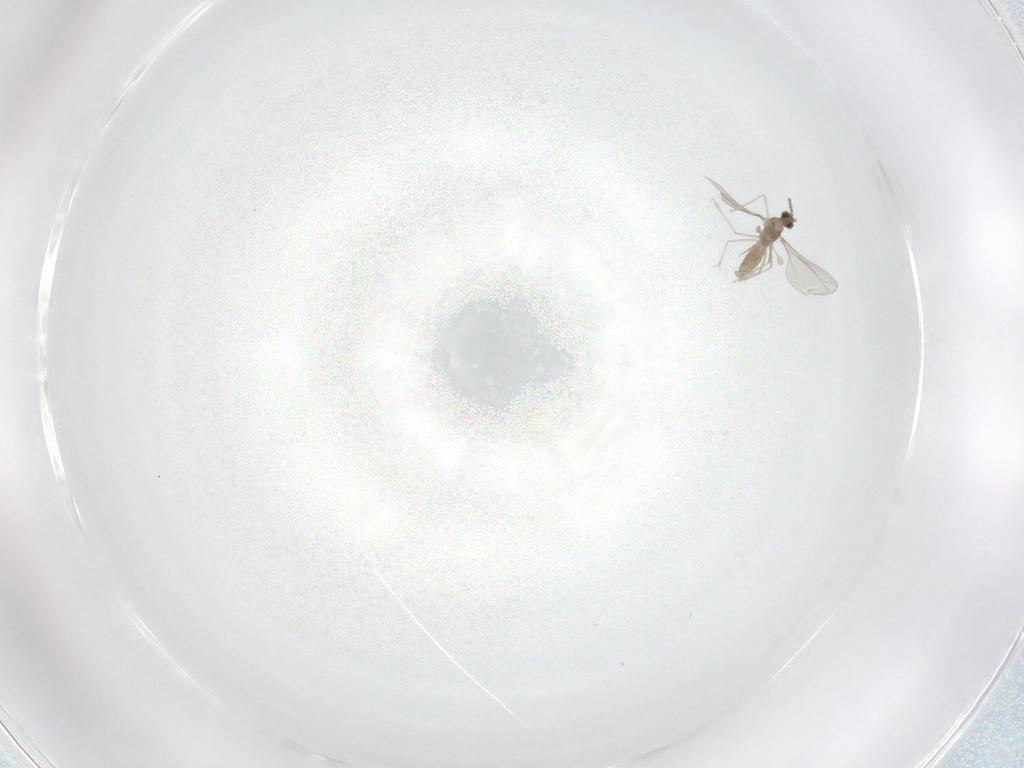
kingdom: Animalia
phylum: Arthropoda
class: Insecta
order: Diptera
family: Cecidomyiidae
